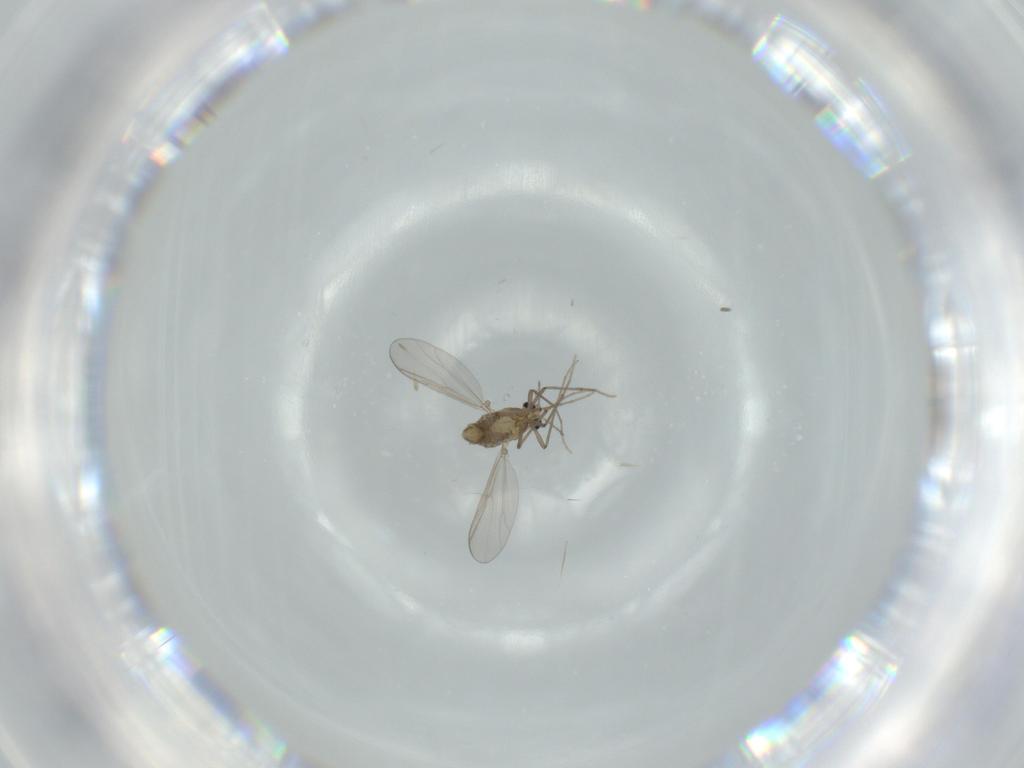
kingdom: Animalia
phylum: Arthropoda
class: Insecta
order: Diptera
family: Chironomidae
